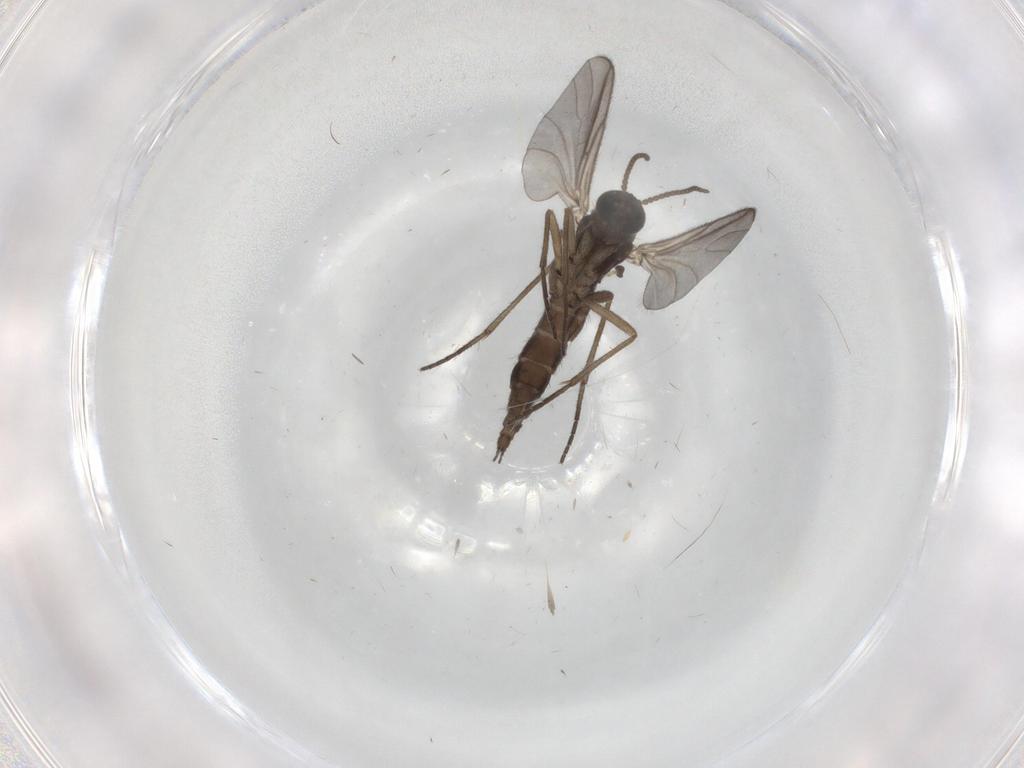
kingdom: Animalia
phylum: Arthropoda
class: Insecta
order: Diptera
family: Sciaridae
